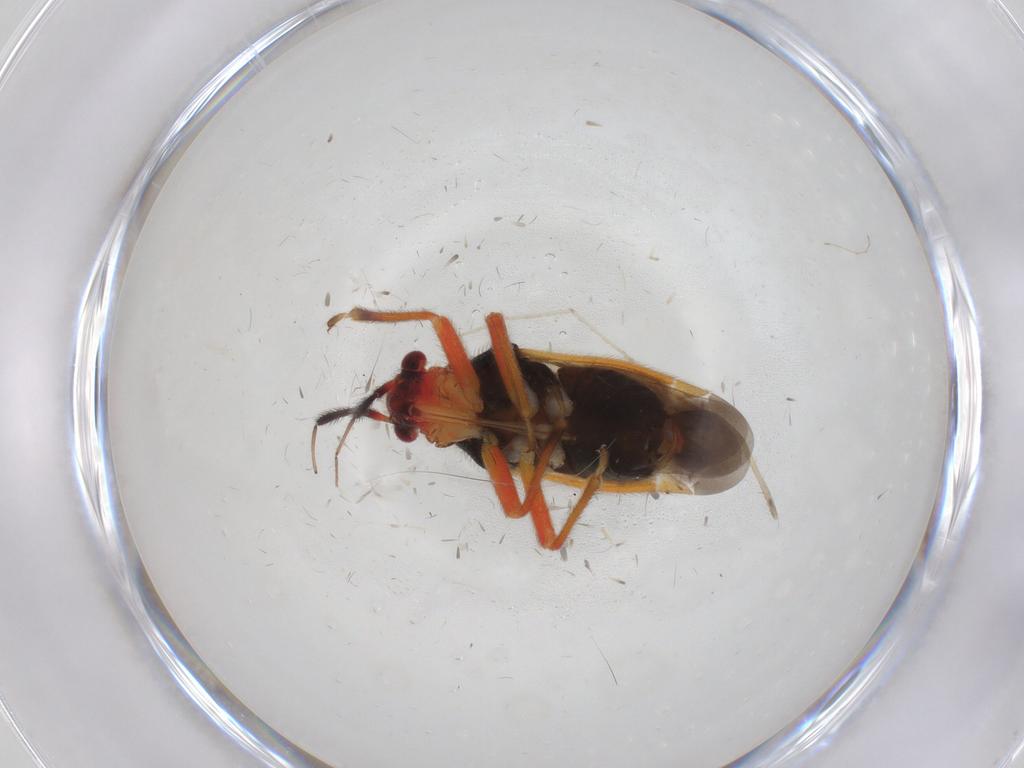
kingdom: Animalia
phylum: Arthropoda
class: Insecta
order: Hemiptera
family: Miridae
